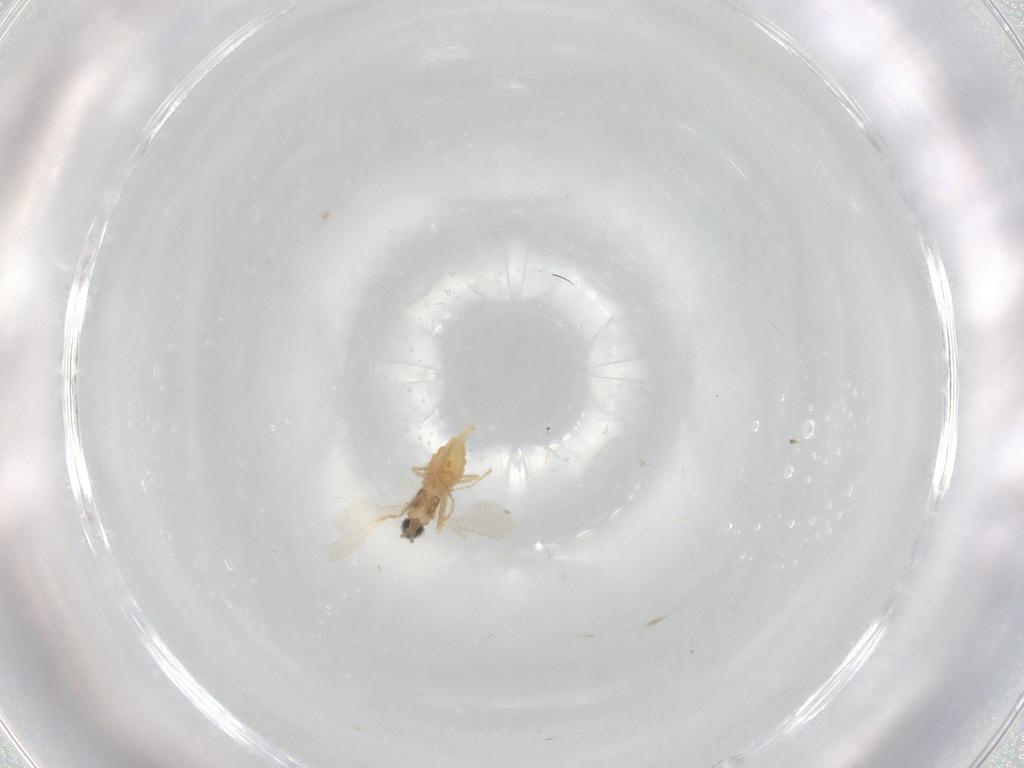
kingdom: Animalia
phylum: Arthropoda
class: Insecta
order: Diptera
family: Cecidomyiidae
